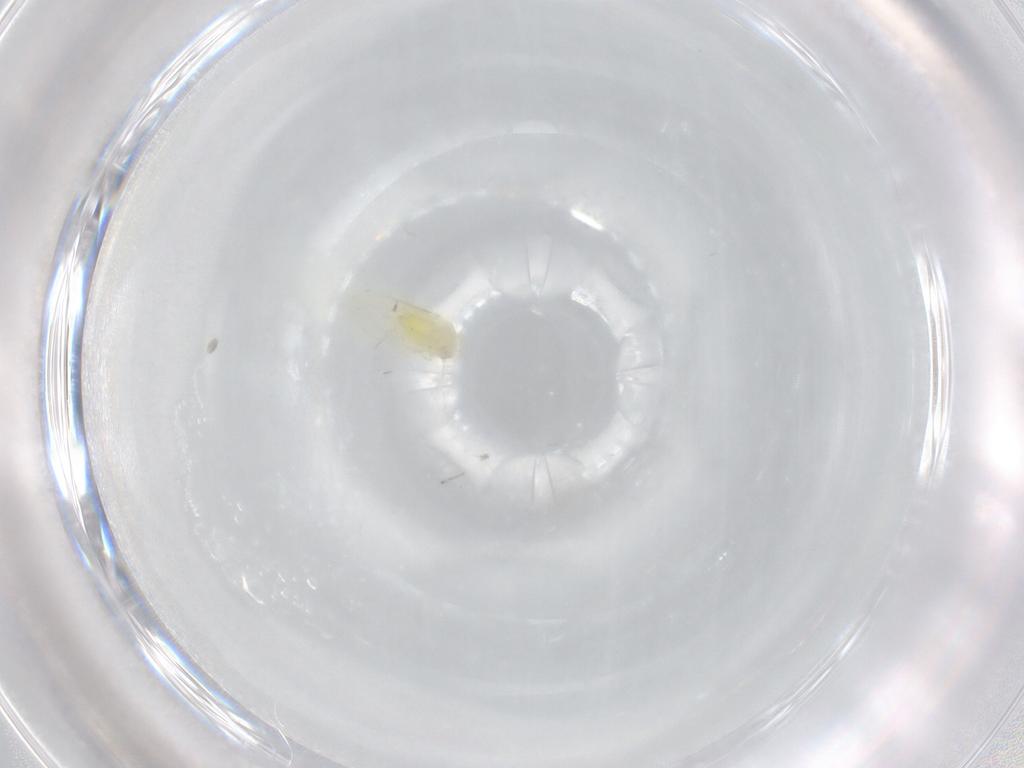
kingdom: Animalia
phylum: Arthropoda
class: Insecta
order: Hemiptera
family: Aleyrodidae
